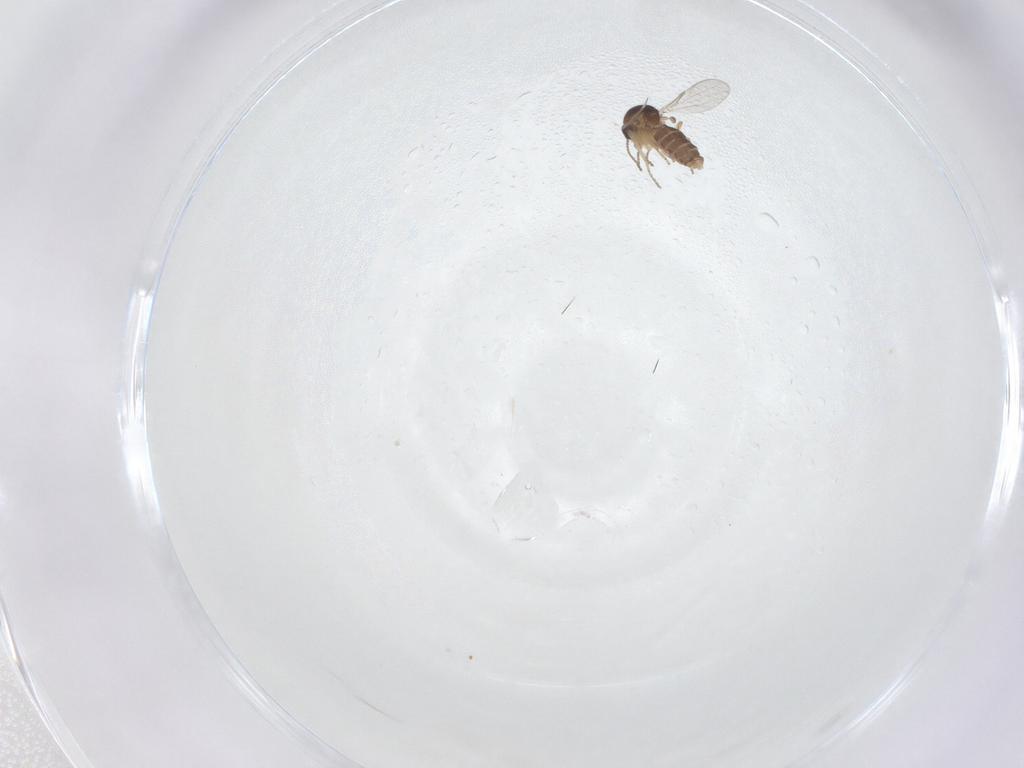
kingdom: Animalia
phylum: Arthropoda
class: Insecta
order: Diptera
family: Ceratopogonidae
